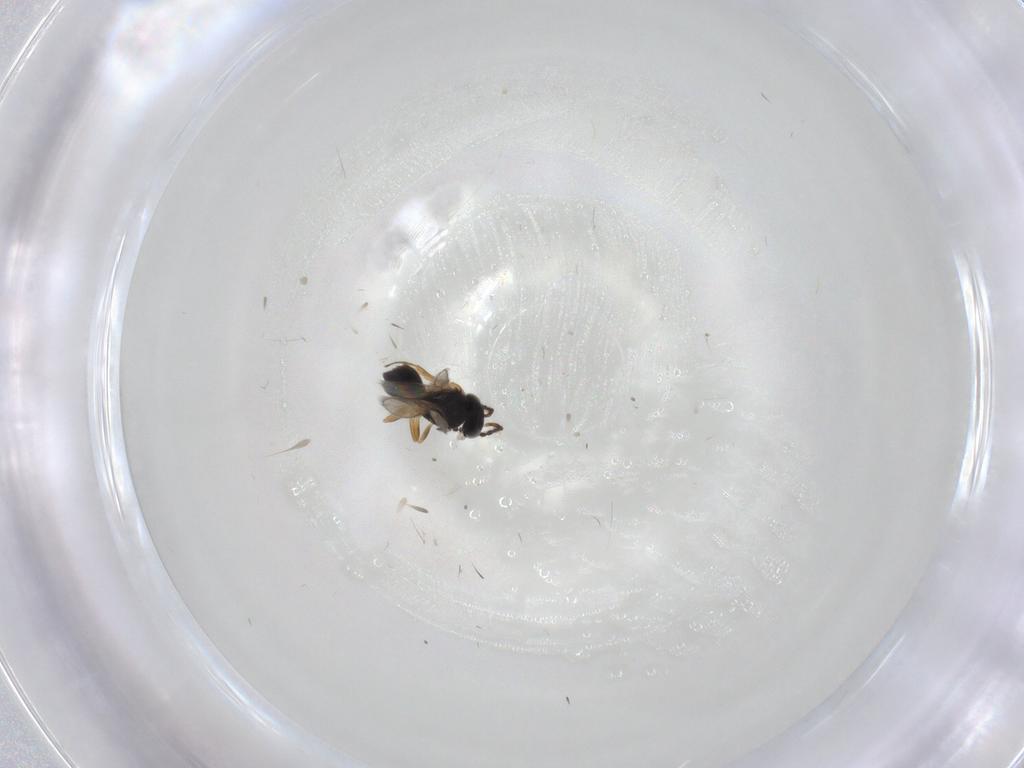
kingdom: Animalia
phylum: Arthropoda
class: Insecta
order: Hymenoptera
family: Scelionidae
